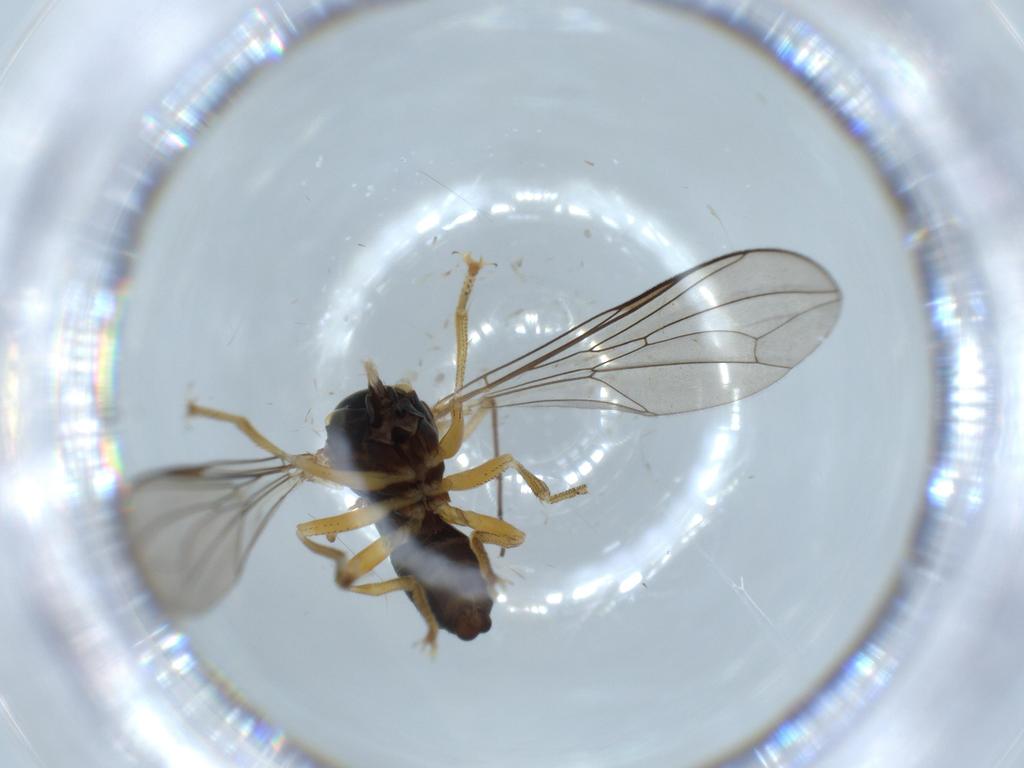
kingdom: Animalia
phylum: Arthropoda
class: Insecta
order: Diptera
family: Pipunculidae
